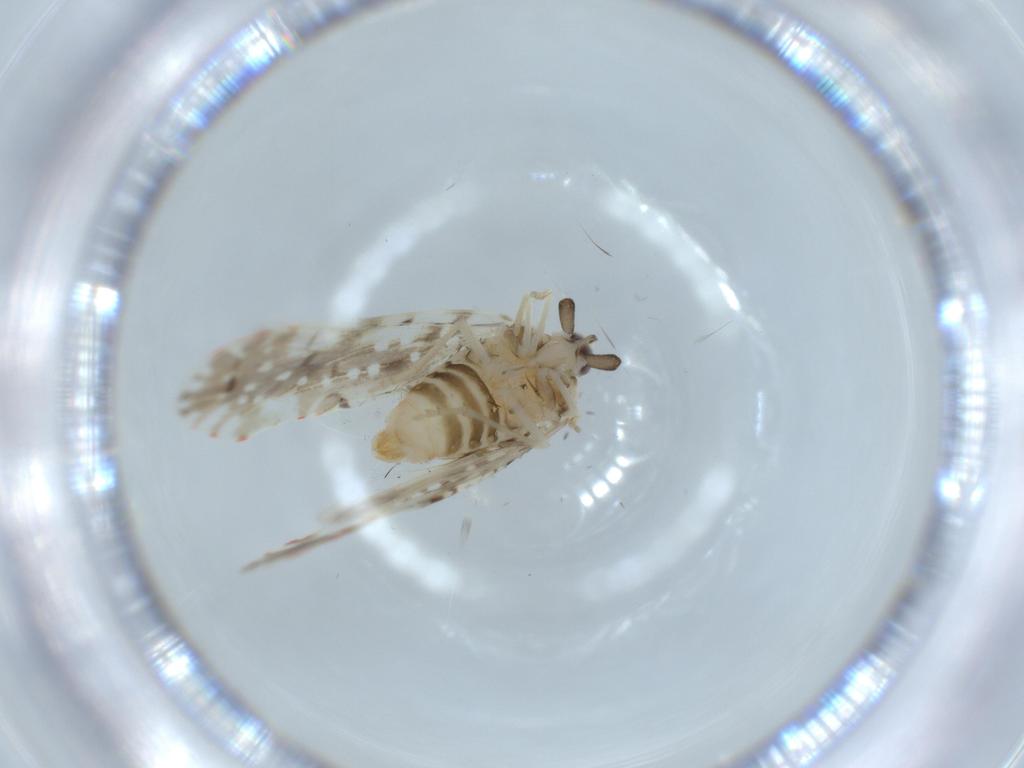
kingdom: Animalia
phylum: Arthropoda
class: Insecta
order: Hemiptera
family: Derbidae
